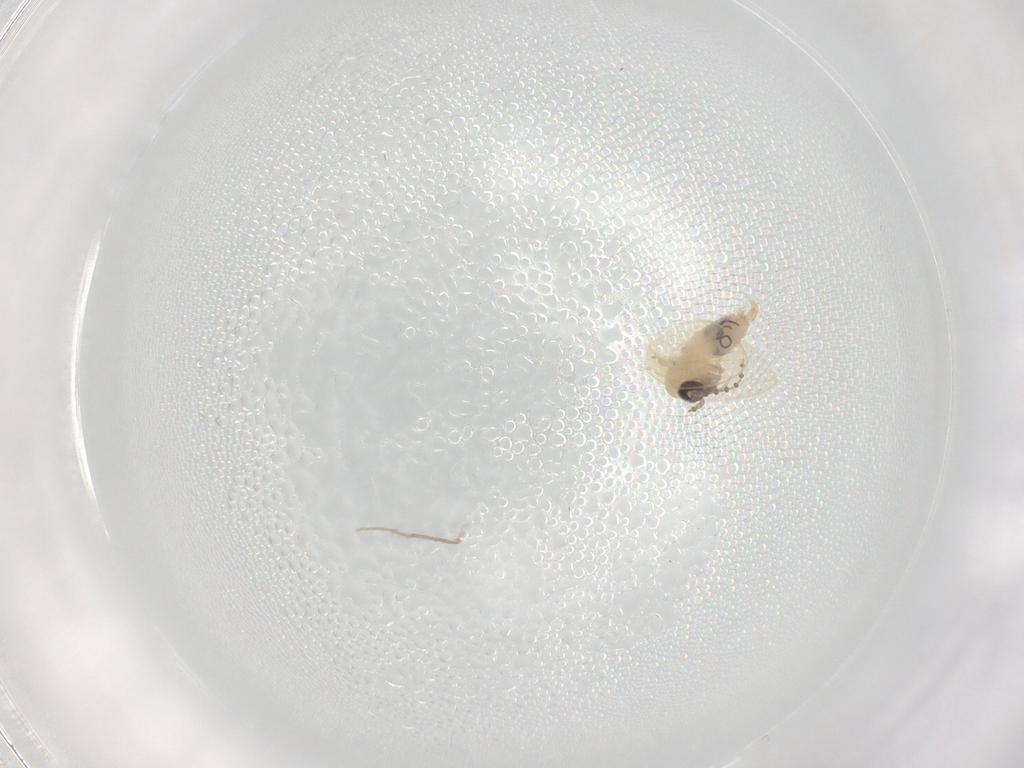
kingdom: Animalia
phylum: Arthropoda
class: Insecta
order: Diptera
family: Psychodidae
